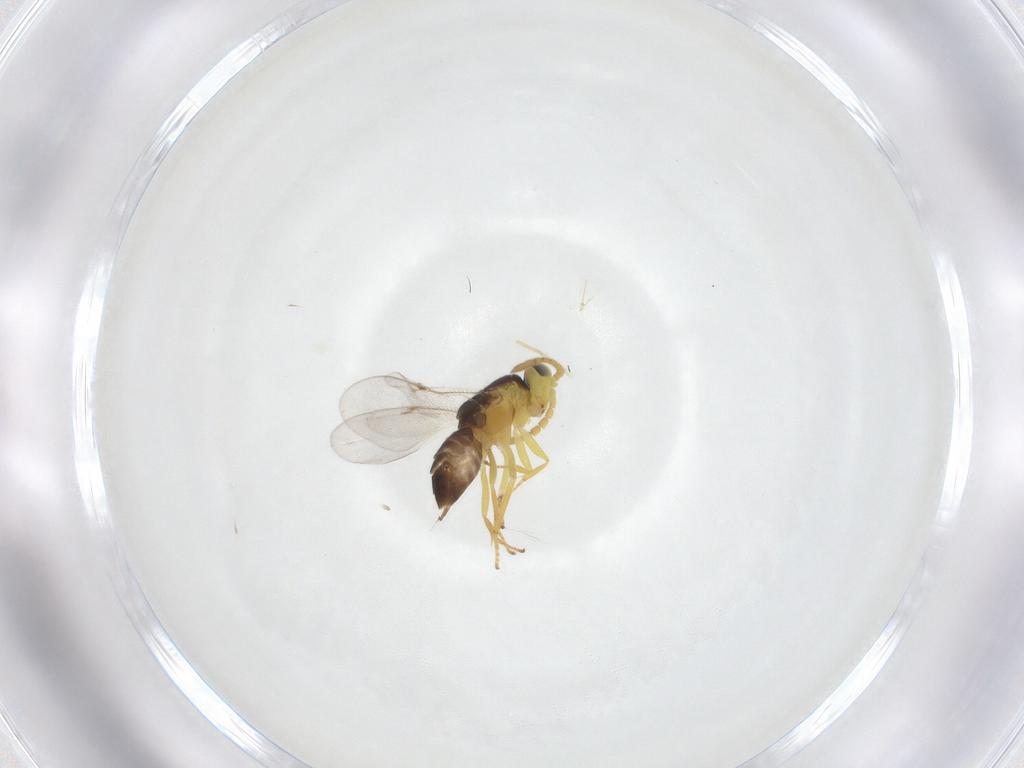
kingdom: Animalia
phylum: Arthropoda
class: Insecta
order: Hymenoptera
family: Encyrtidae
